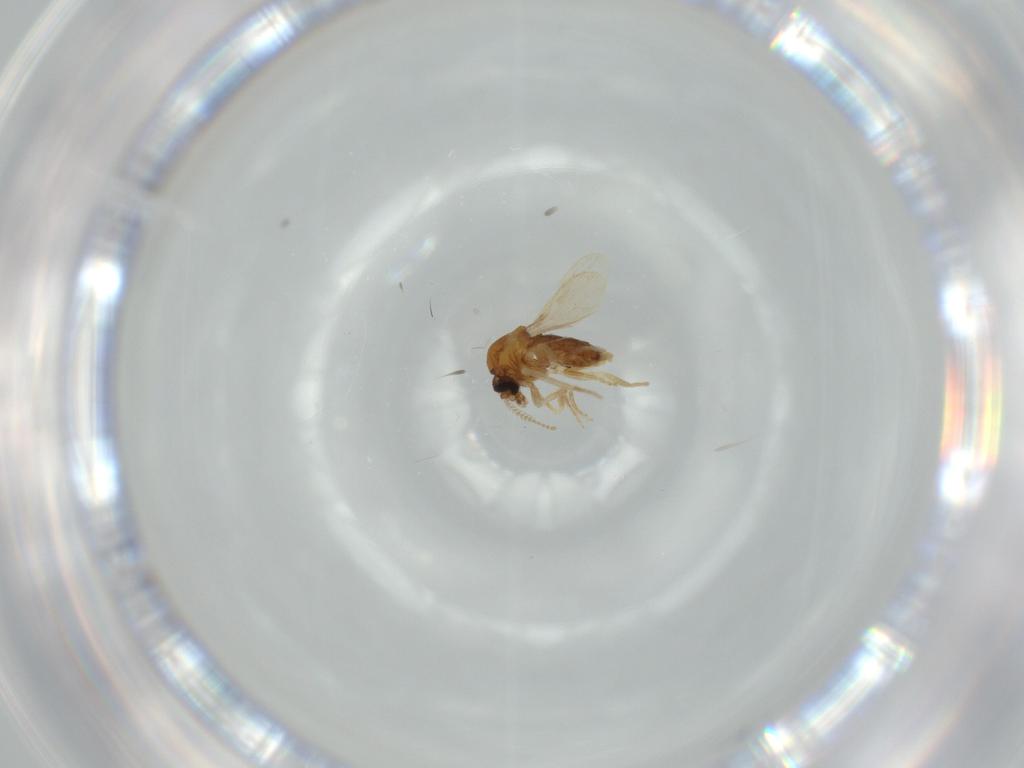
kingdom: Animalia
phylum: Arthropoda
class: Insecta
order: Diptera
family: Ceratopogonidae
